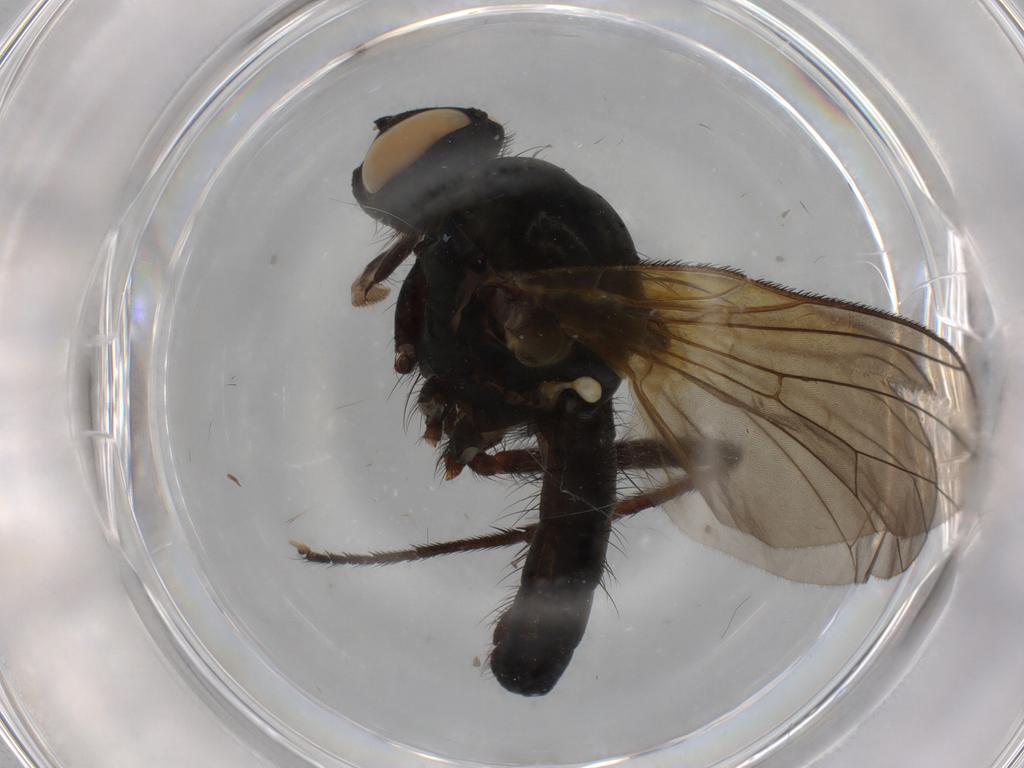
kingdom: Animalia
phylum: Arthropoda
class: Insecta
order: Diptera
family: Anthomyiidae
